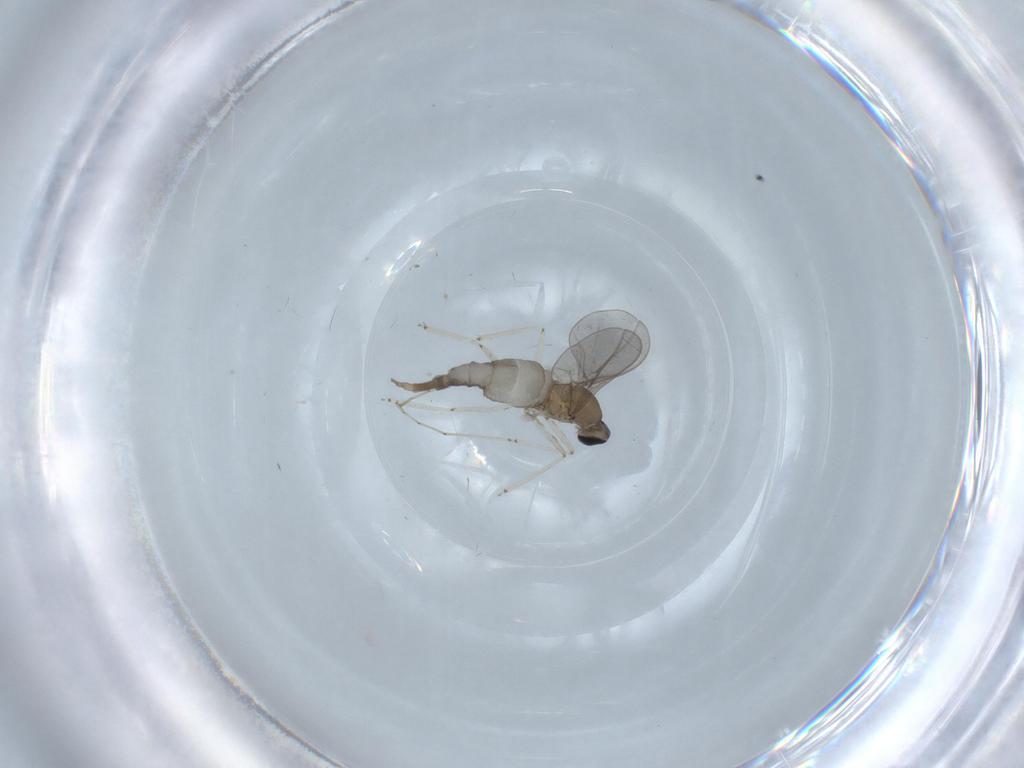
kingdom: Animalia
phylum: Arthropoda
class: Insecta
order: Diptera
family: Cecidomyiidae
